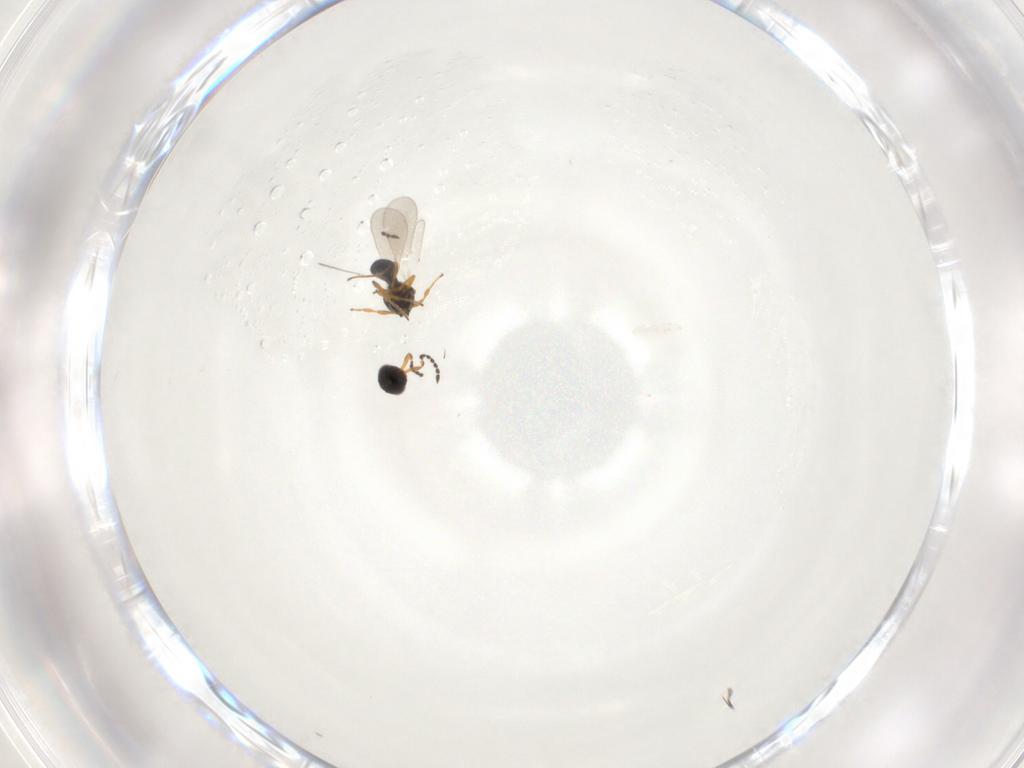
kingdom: Animalia
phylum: Arthropoda
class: Insecta
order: Hymenoptera
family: Platygastridae
